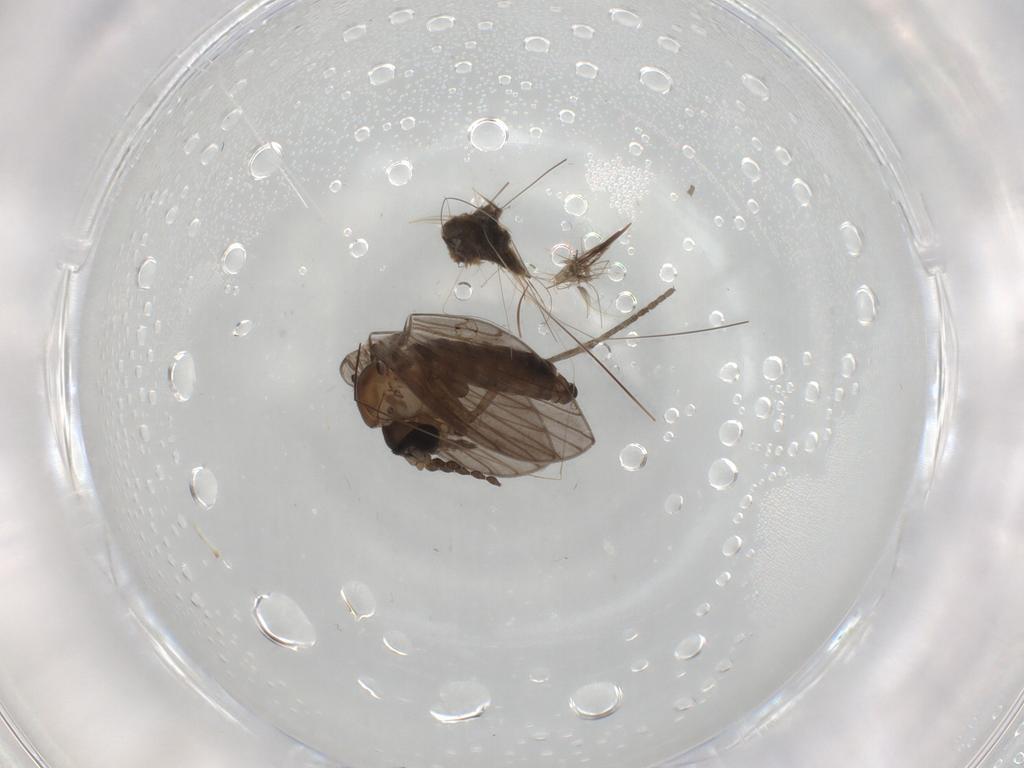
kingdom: Animalia
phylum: Arthropoda
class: Insecta
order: Diptera
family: Psychodidae
